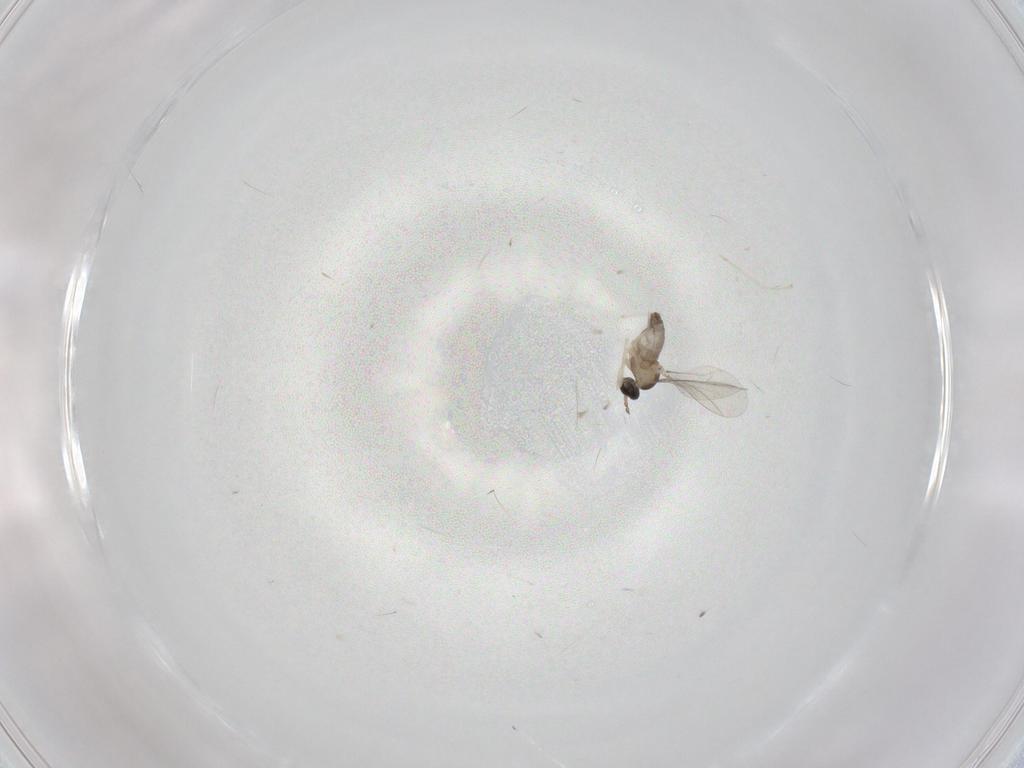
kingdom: Animalia
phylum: Arthropoda
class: Insecta
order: Diptera
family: Cecidomyiidae
